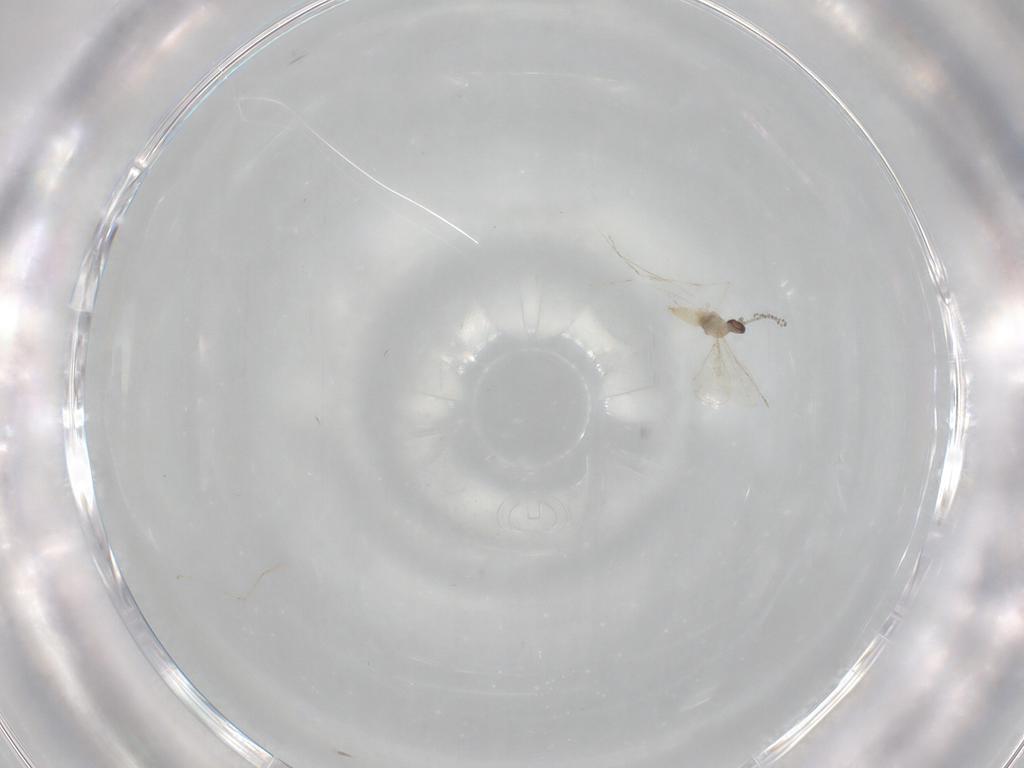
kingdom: Animalia
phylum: Arthropoda
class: Insecta
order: Diptera
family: Cecidomyiidae
